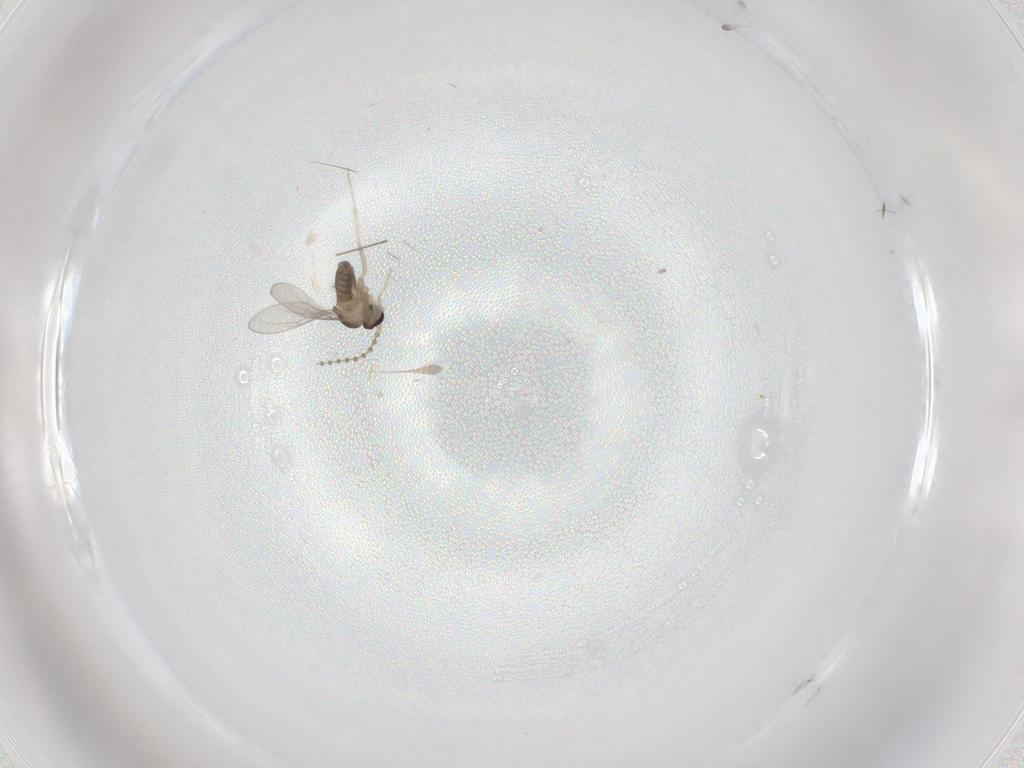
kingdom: Animalia
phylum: Arthropoda
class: Insecta
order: Diptera
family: Cecidomyiidae
